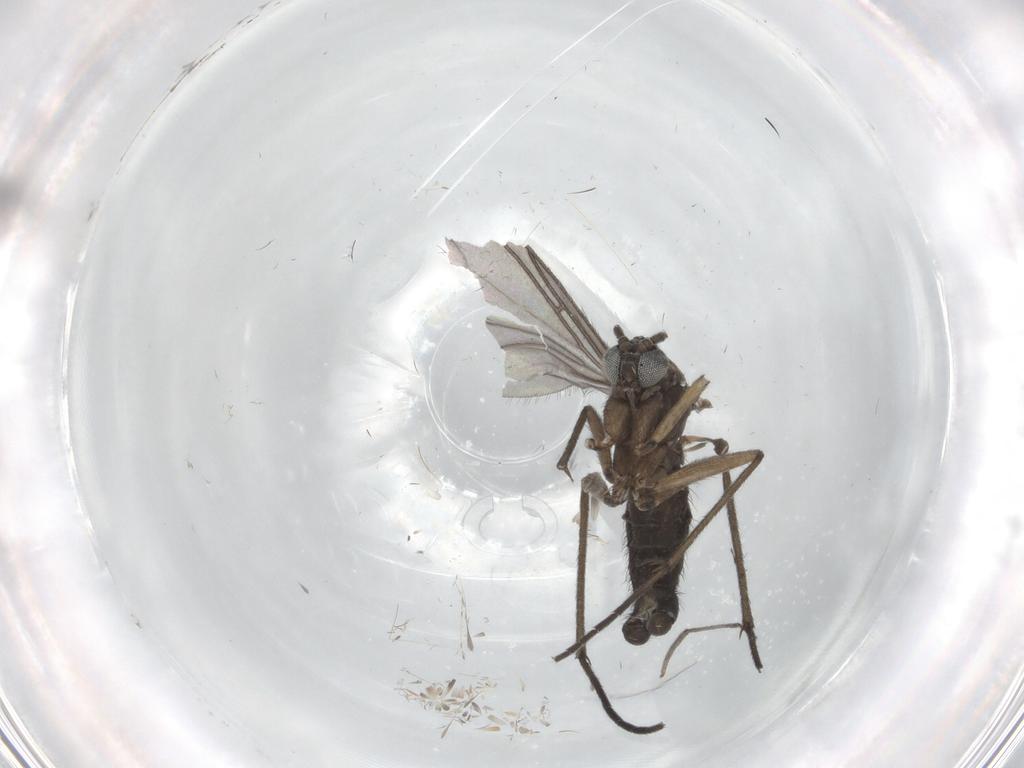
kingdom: Animalia
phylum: Arthropoda
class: Insecta
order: Diptera
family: Sciaridae
